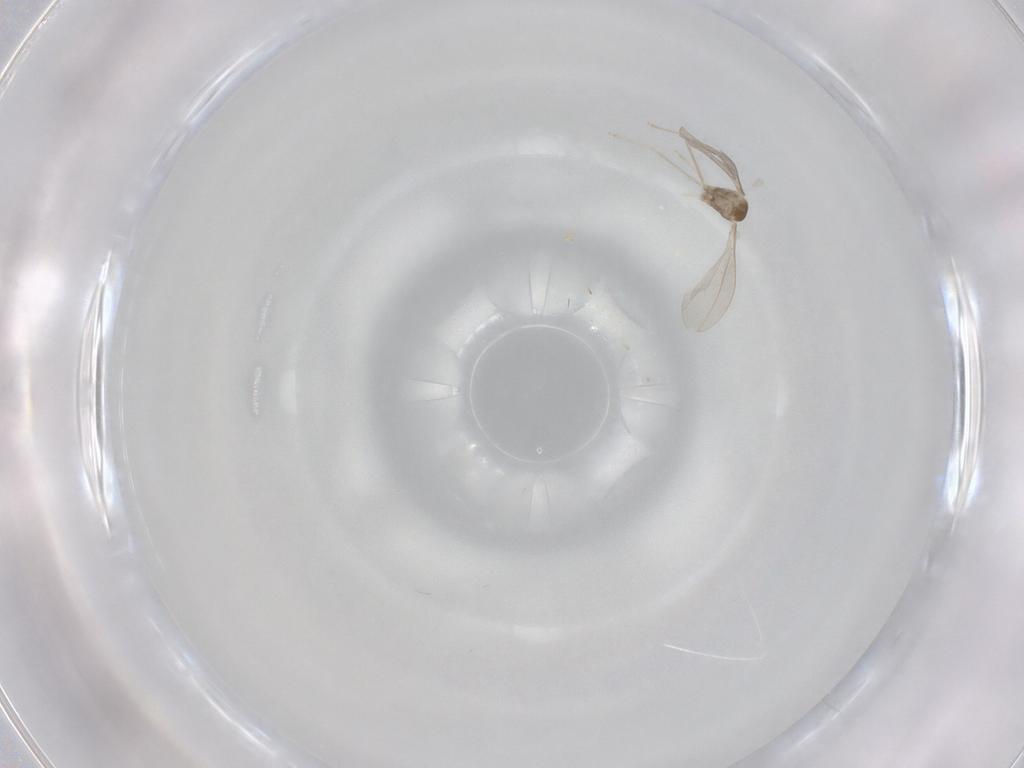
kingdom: Animalia
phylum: Arthropoda
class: Insecta
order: Diptera
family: Cecidomyiidae
